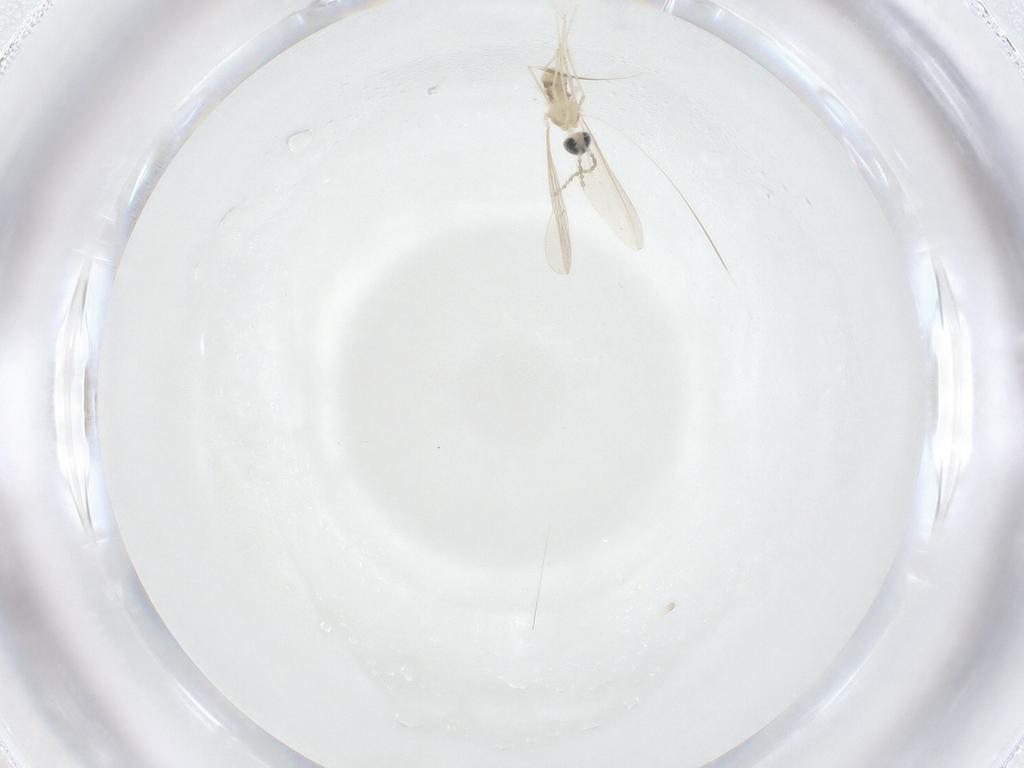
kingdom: Animalia
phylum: Arthropoda
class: Insecta
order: Diptera
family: Cecidomyiidae
